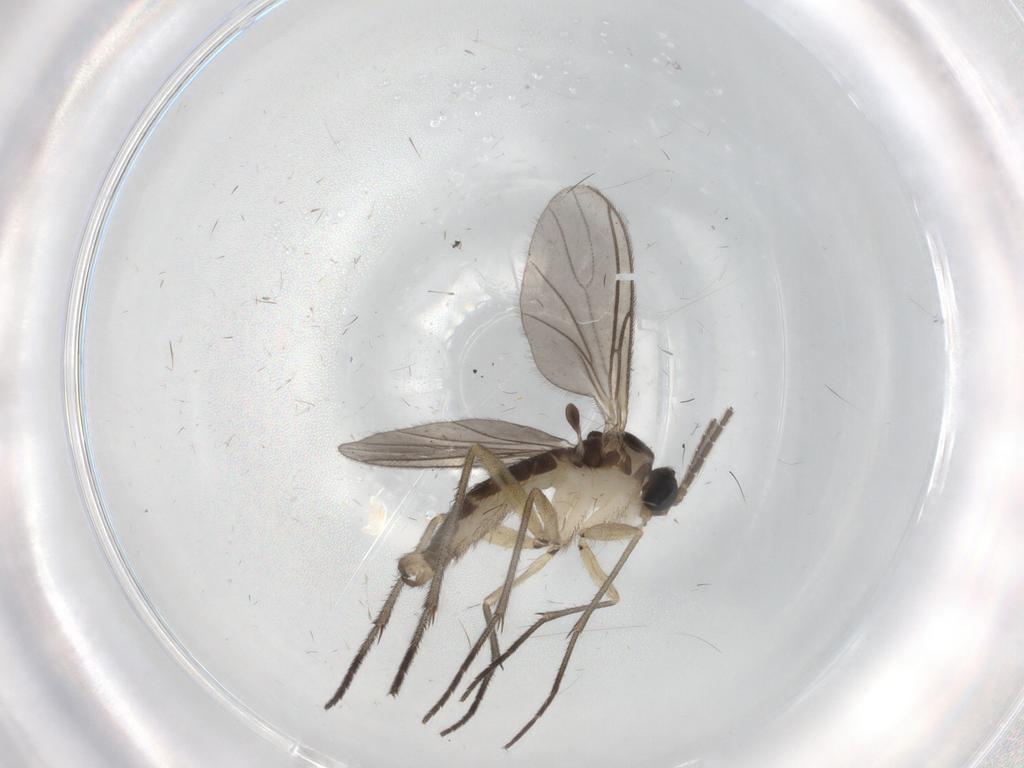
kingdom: Animalia
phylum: Arthropoda
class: Insecta
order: Diptera
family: Sciaridae
